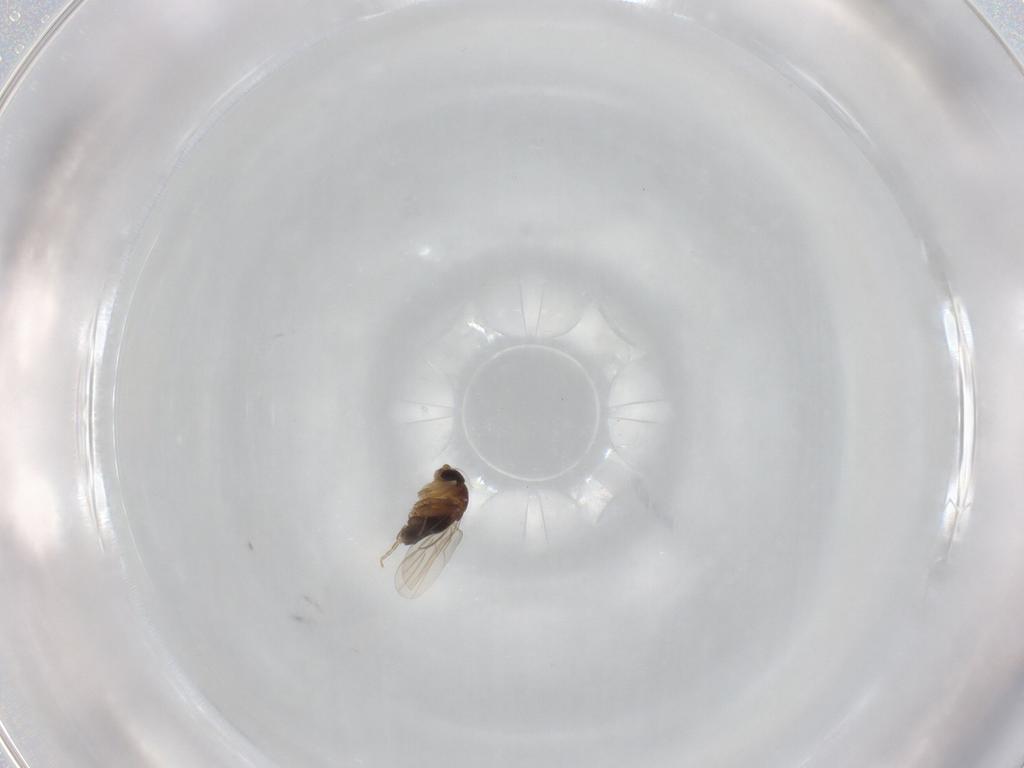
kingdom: Animalia
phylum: Arthropoda
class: Insecta
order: Diptera
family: Phoridae
